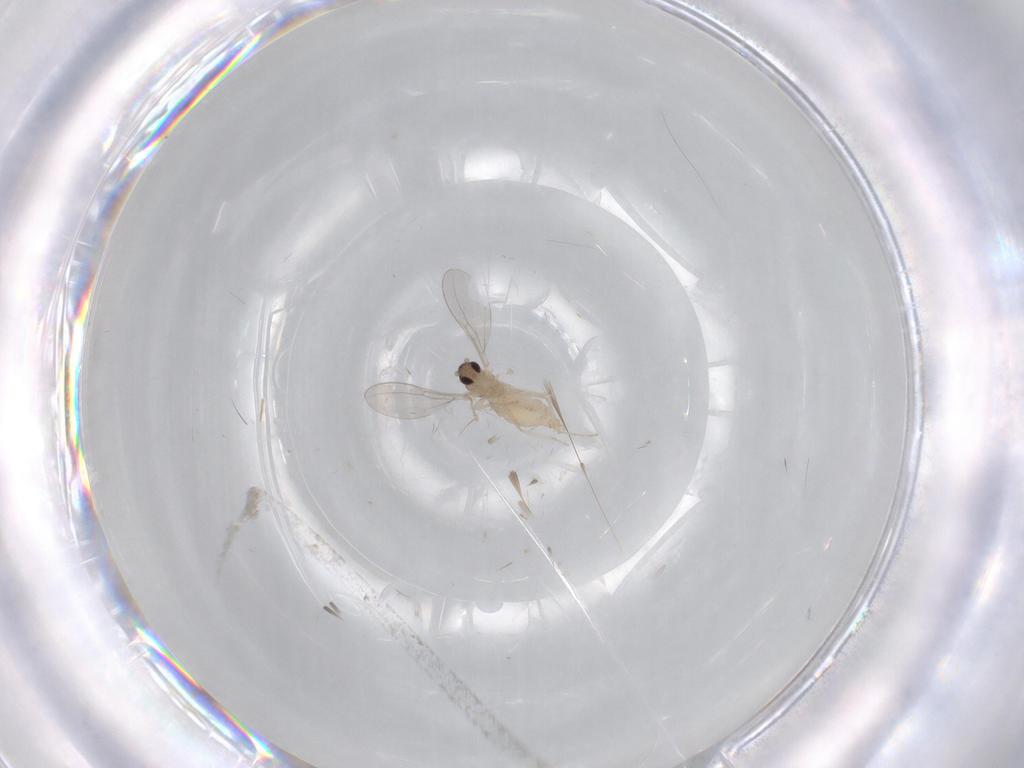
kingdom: Animalia
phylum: Arthropoda
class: Insecta
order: Diptera
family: Cecidomyiidae
